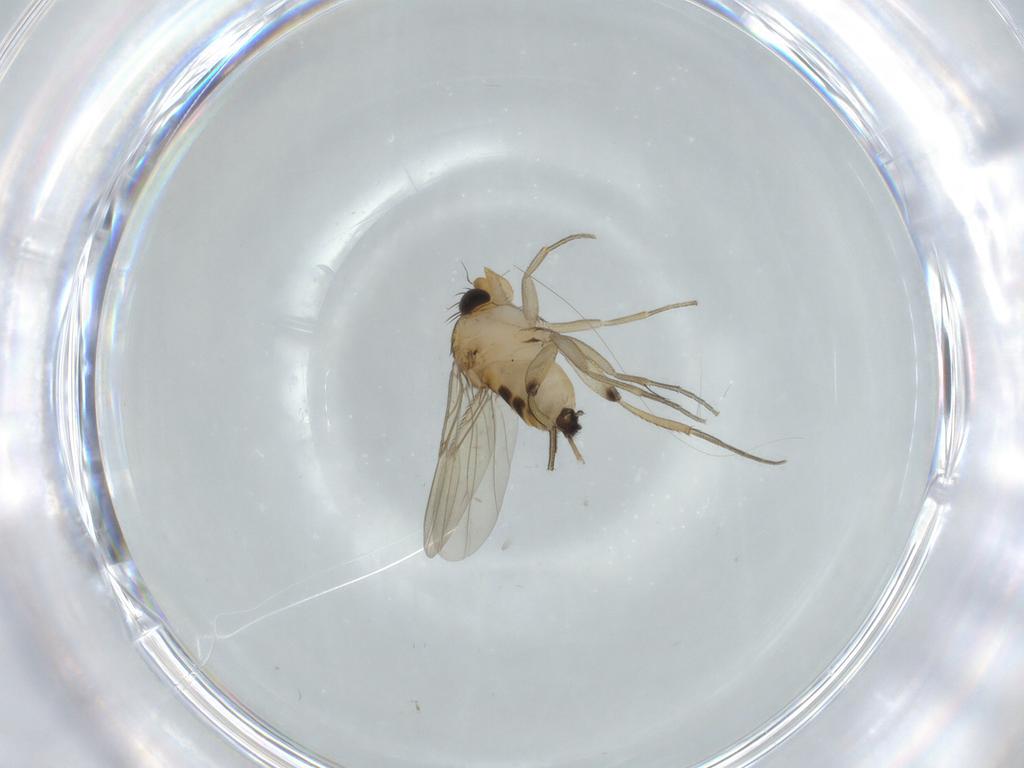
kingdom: Animalia
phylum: Arthropoda
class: Insecta
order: Diptera
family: Phoridae
